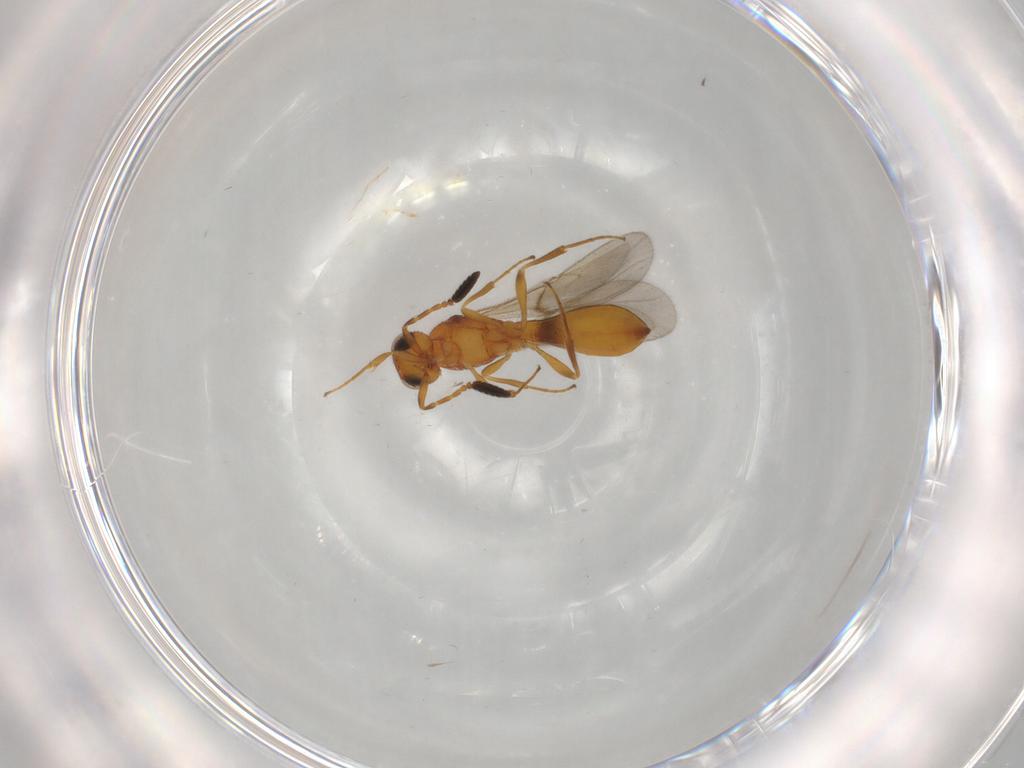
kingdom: Animalia
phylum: Arthropoda
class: Insecta
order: Hymenoptera
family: Scelionidae
